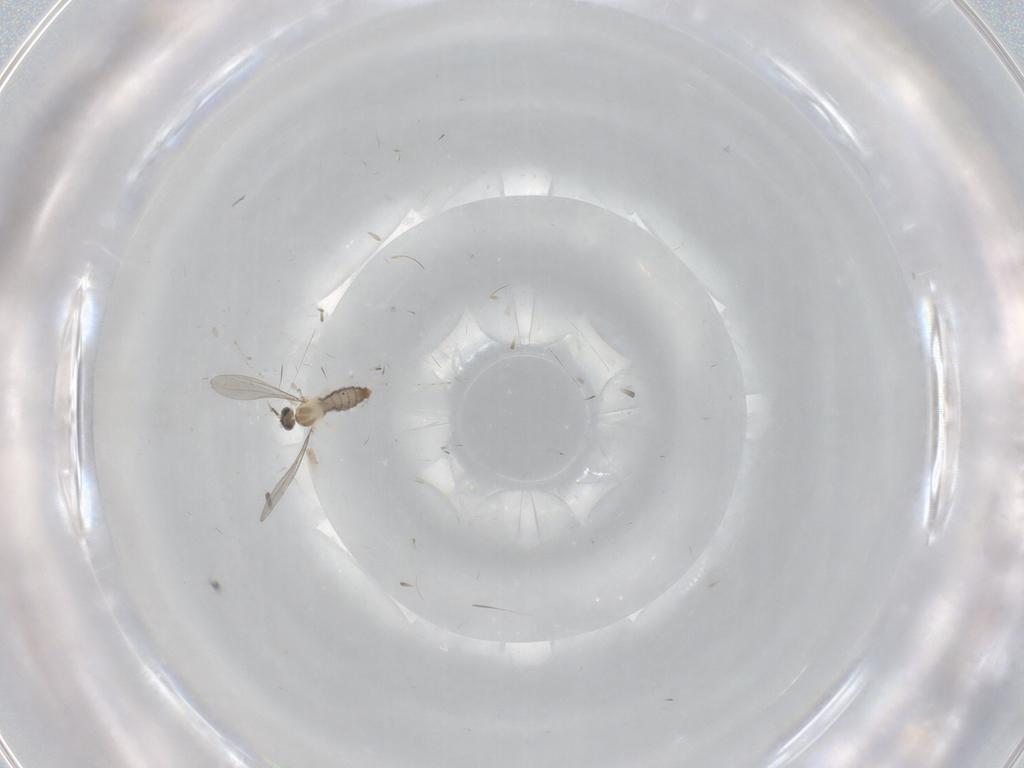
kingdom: Animalia
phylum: Arthropoda
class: Insecta
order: Diptera
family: Cecidomyiidae
